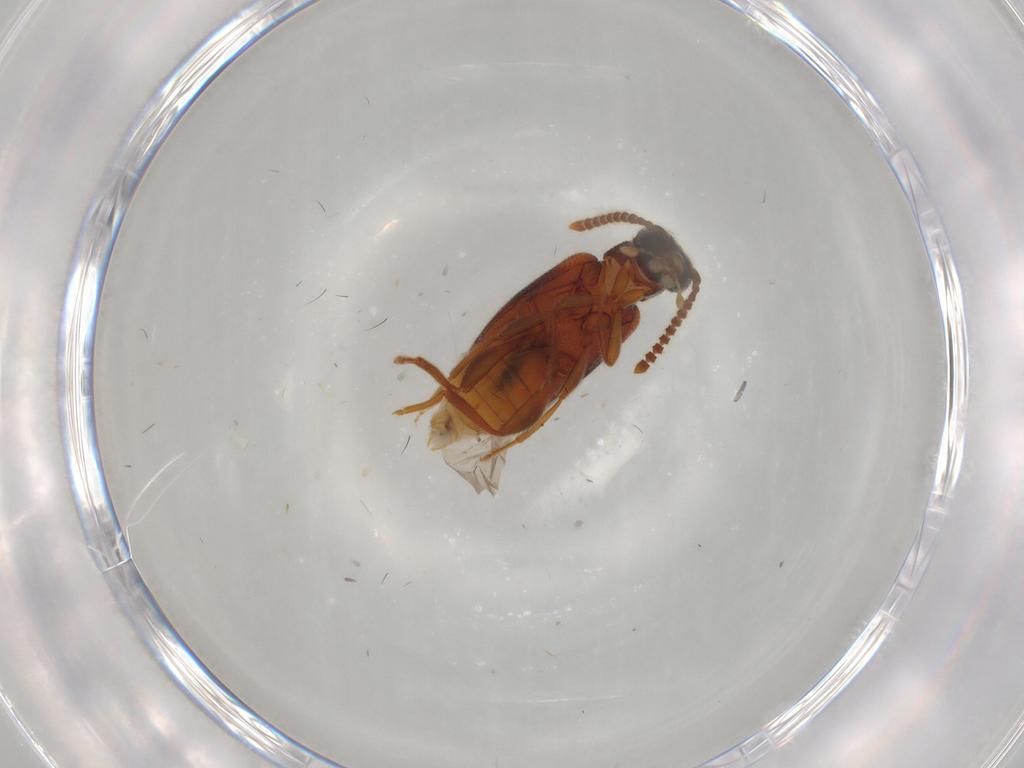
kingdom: Animalia
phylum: Arthropoda
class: Insecta
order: Coleoptera
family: Aderidae
